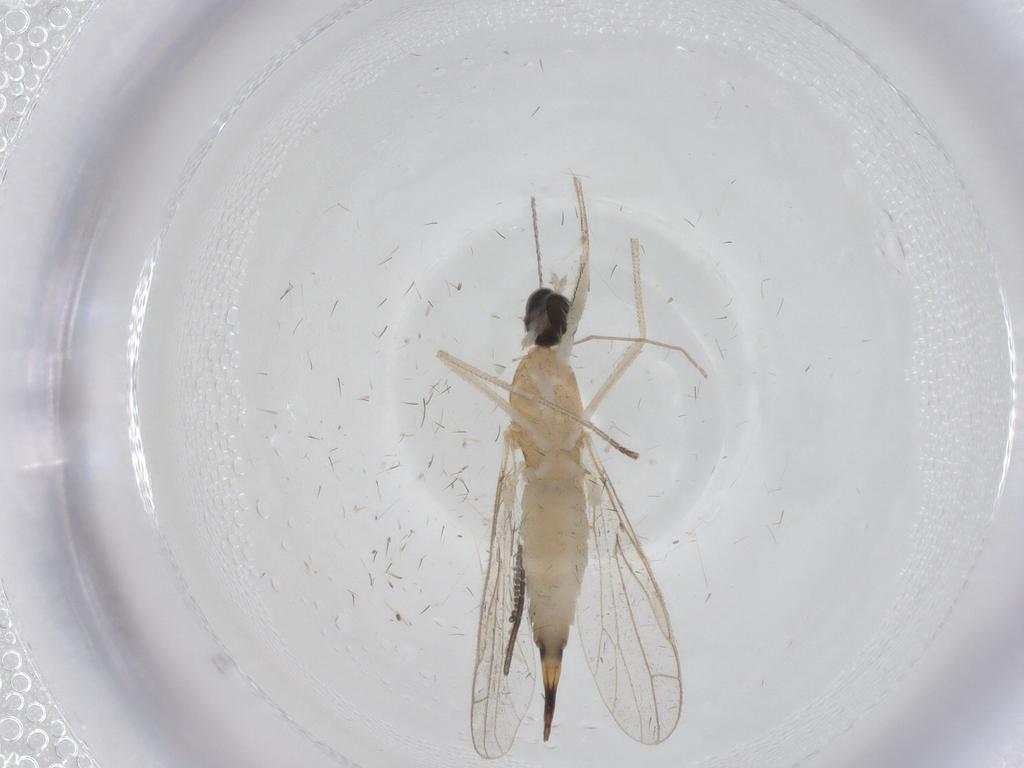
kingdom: Animalia
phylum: Arthropoda
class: Insecta
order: Diptera
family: Empididae
